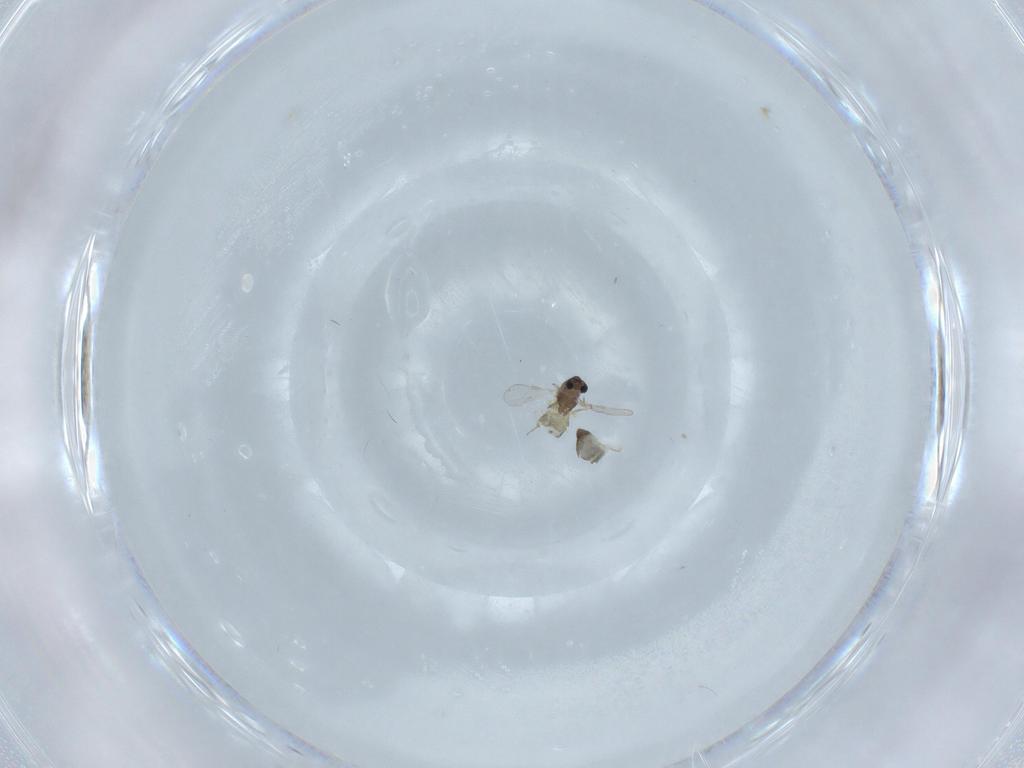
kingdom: Animalia
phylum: Arthropoda
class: Insecta
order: Diptera
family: Chironomidae
